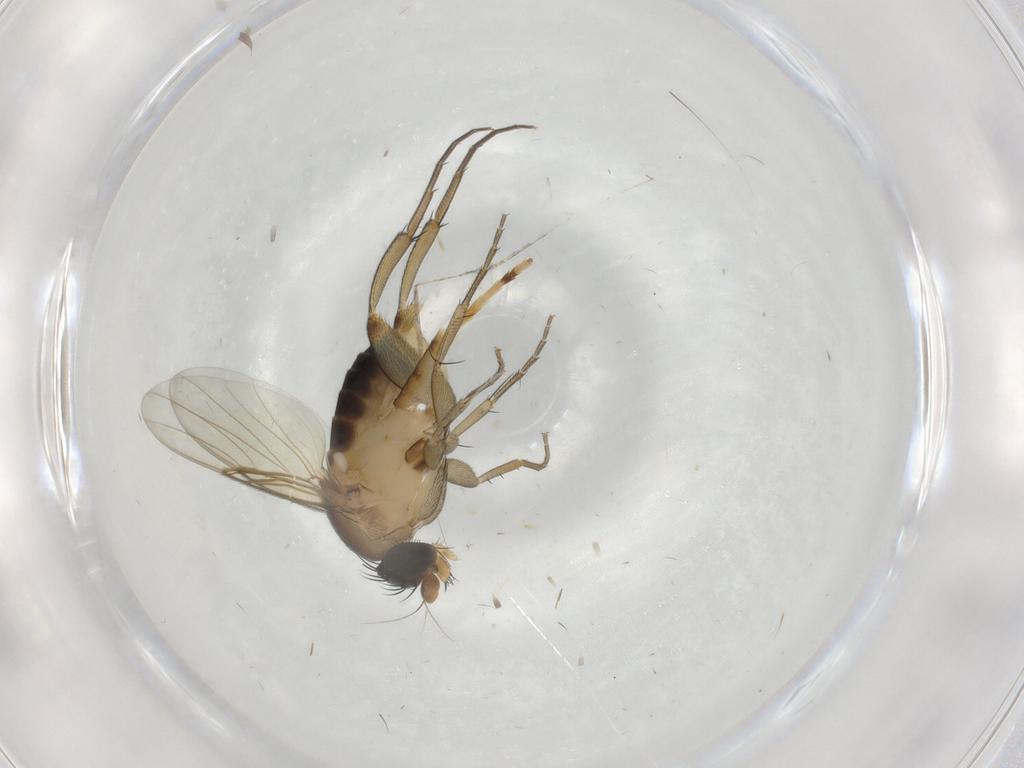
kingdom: Animalia
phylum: Arthropoda
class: Insecta
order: Diptera
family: Phoridae
